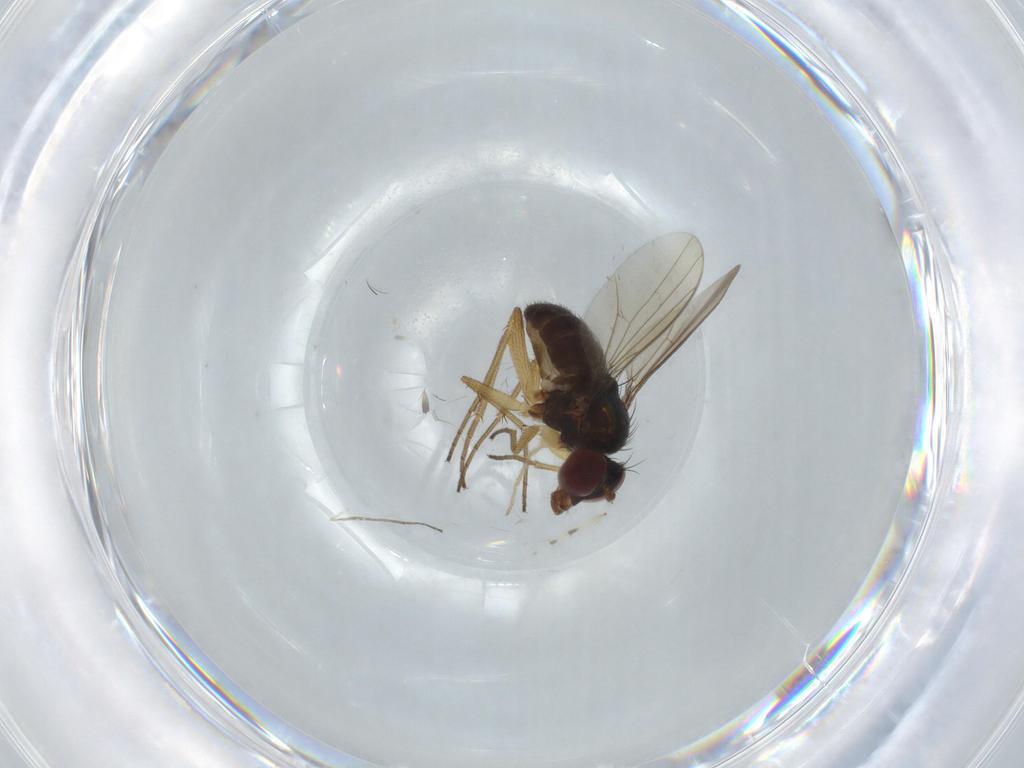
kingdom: Animalia
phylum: Arthropoda
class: Insecta
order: Diptera
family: Dolichopodidae
